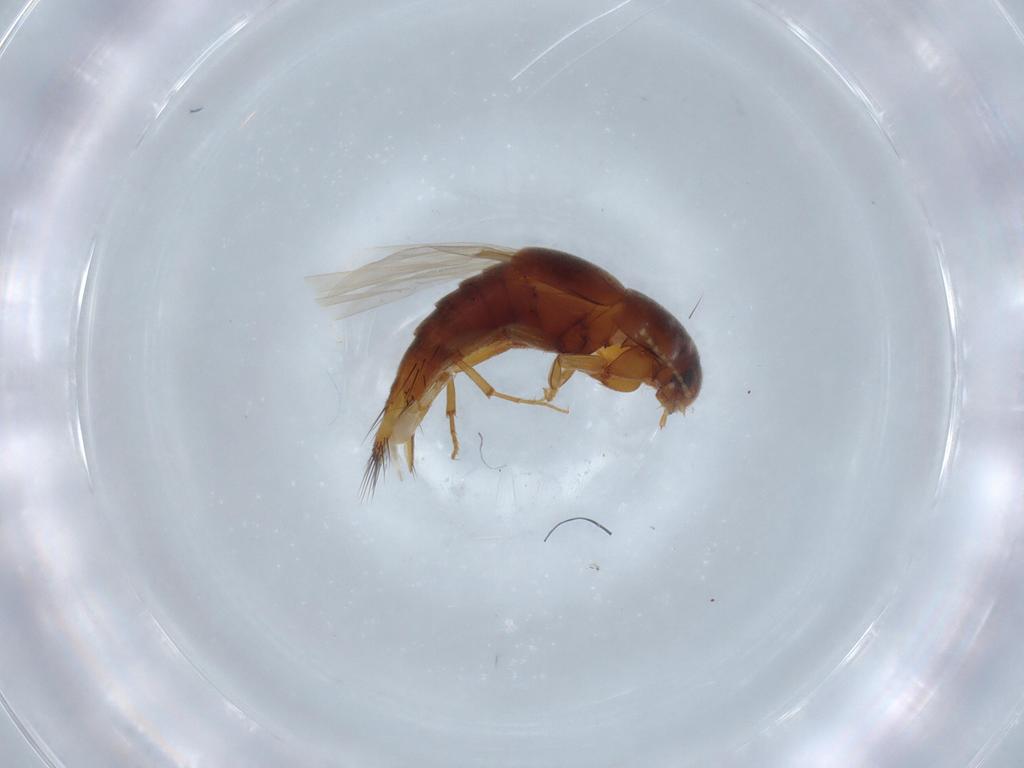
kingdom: Animalia
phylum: Arthropoda
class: Insecta
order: Coleoptera
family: Staphylinidae
